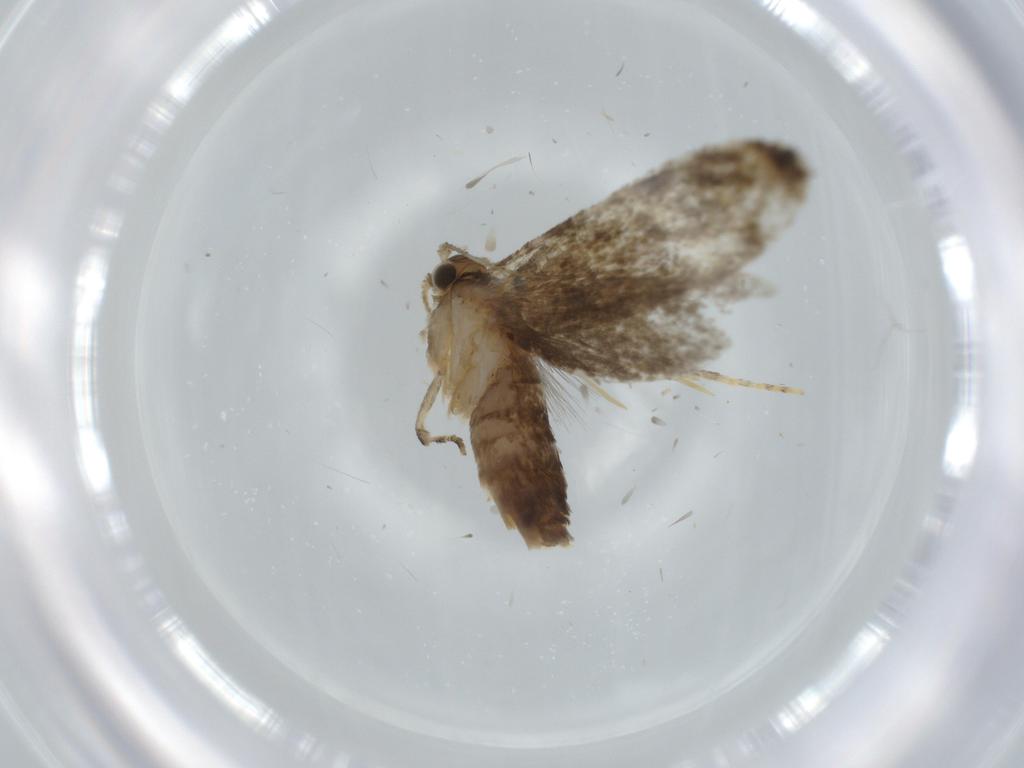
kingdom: Animalia
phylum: Arthropoda
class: Insecta
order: Lepidoptera
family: Tineidae
